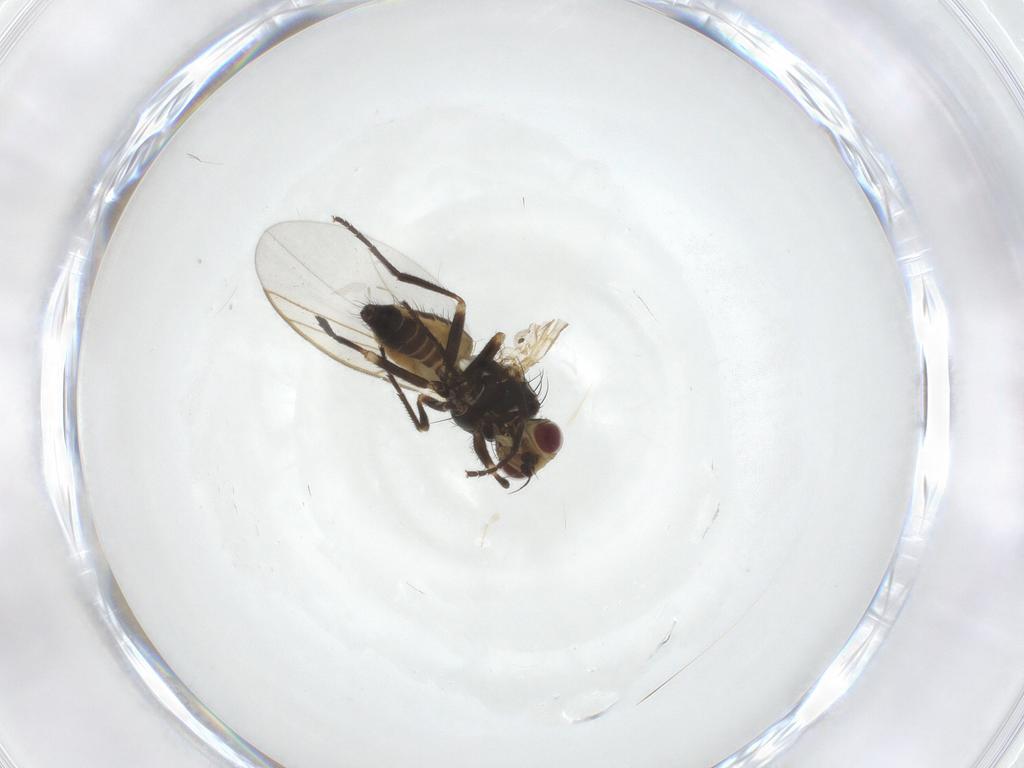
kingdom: Animalia
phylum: Arthropoda
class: Insecta
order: Diptera
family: Sciaridae
